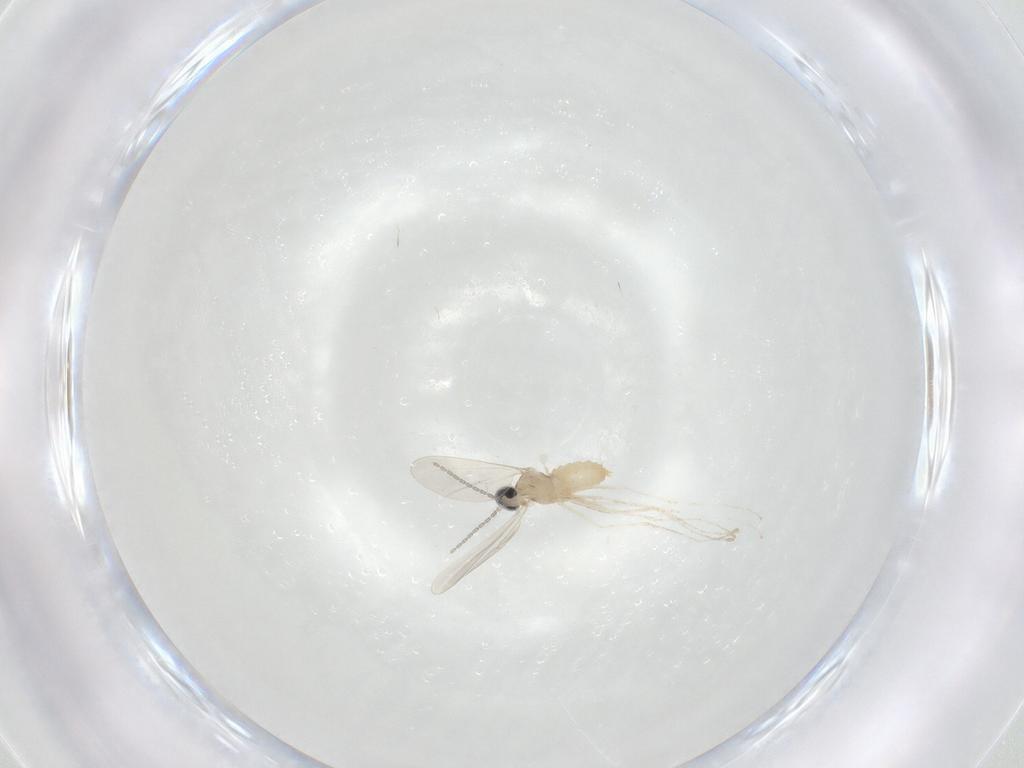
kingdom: Animalia
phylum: Arthropoda
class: Insecta
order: Diptera
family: Cecidomyiidae
